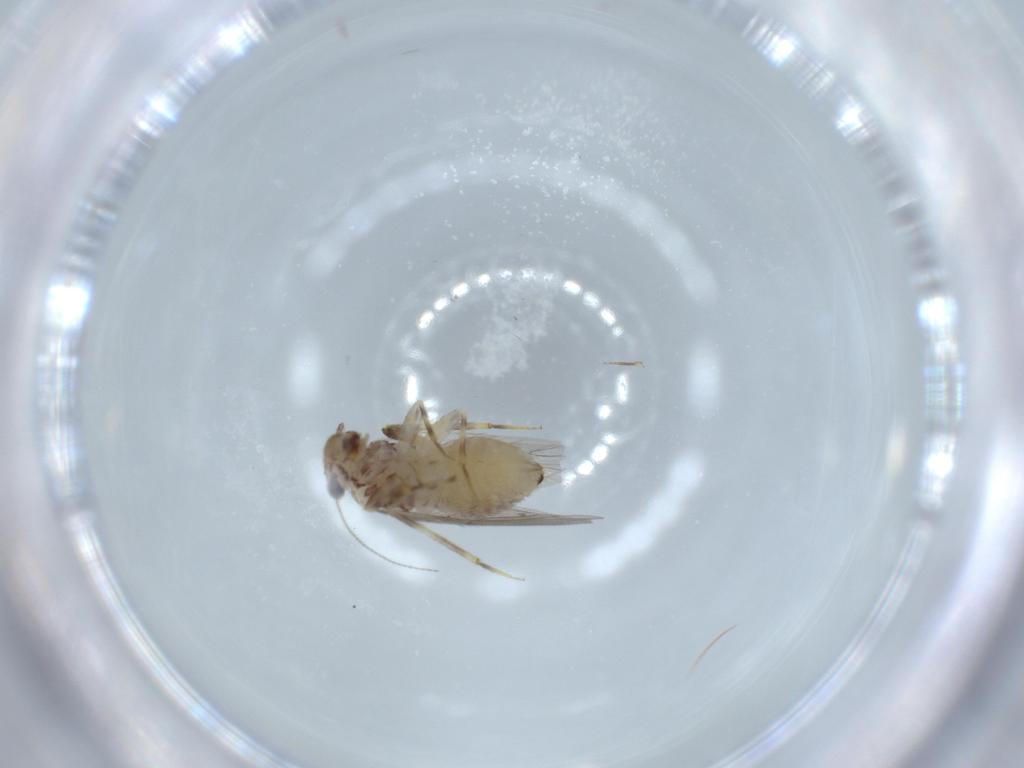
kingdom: Animalia
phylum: Arthropoda
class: Insecta
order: Psocodea
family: Lepidopsocidae
